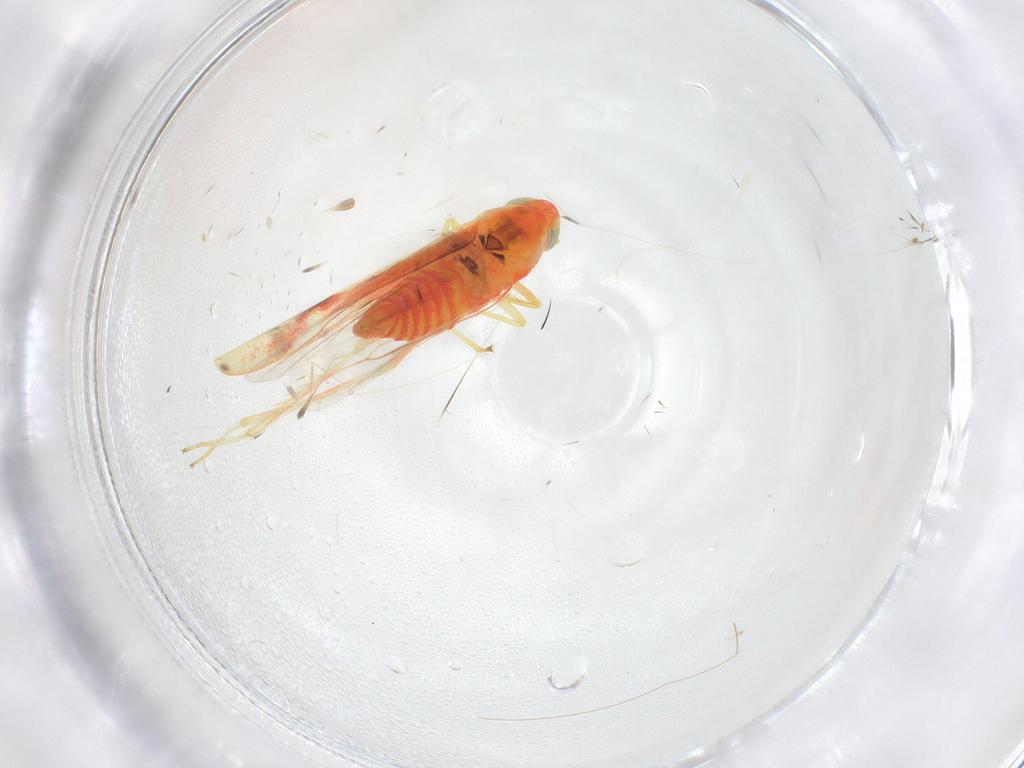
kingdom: Animalia
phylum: Arthropoda
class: Insecta
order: Hemiptera
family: Cicadellidae
